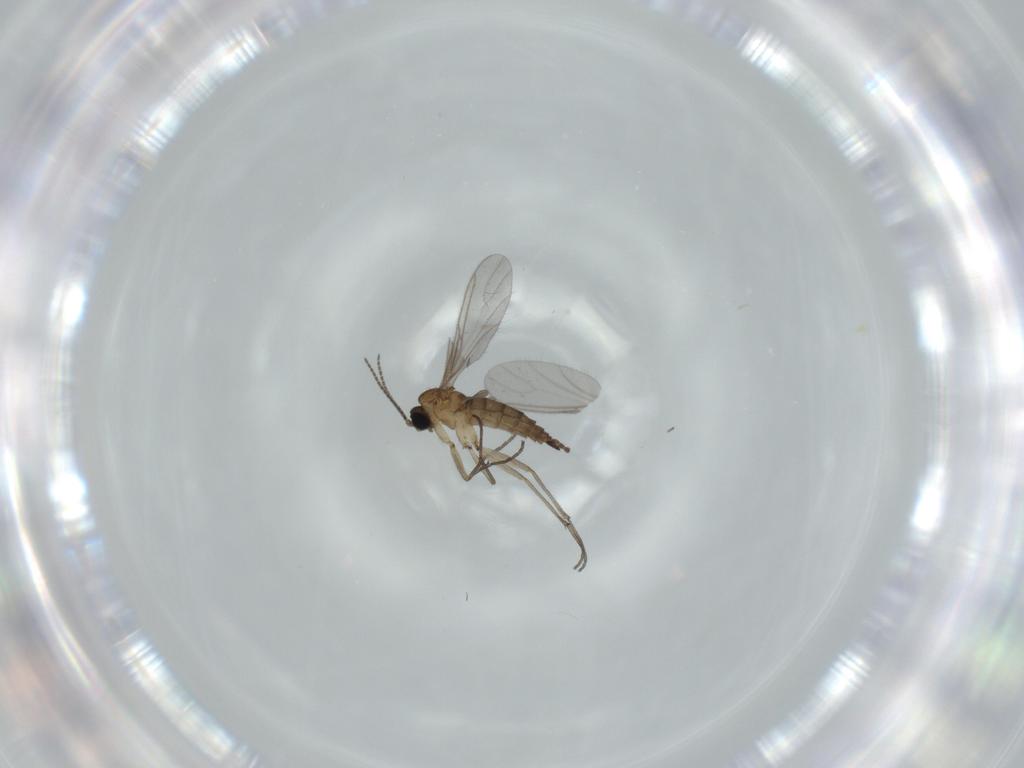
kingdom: Animalia
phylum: Arthropoda
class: Insecta
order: Diptera
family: Sciaridae
